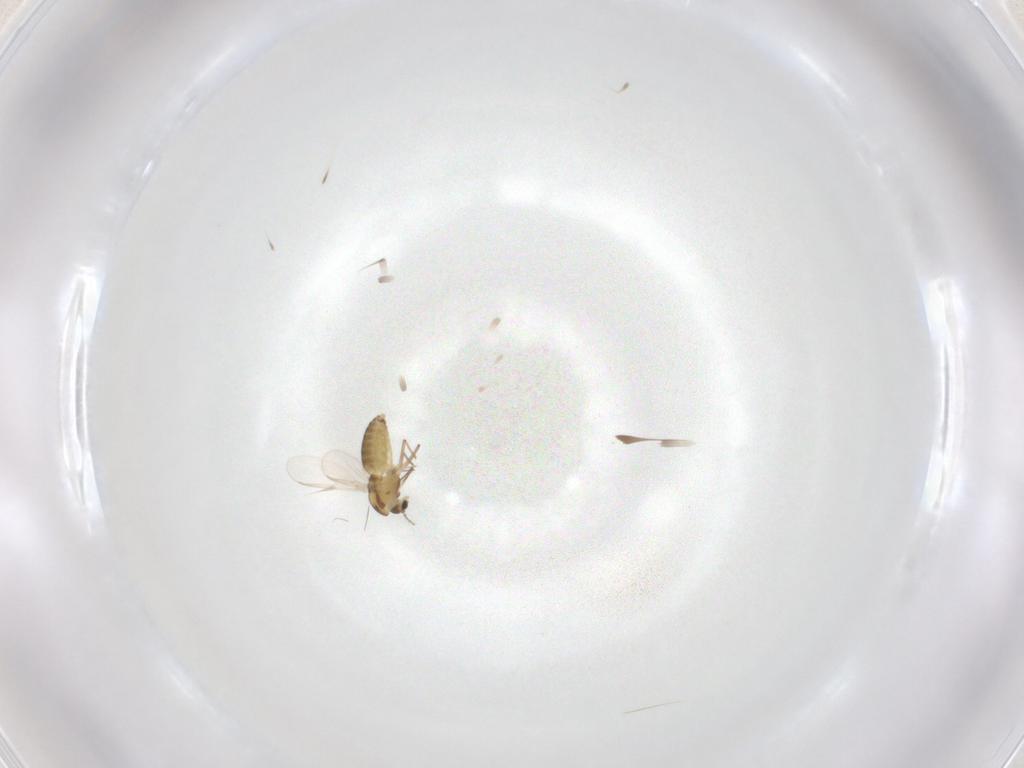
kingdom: Animalia
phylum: Arthropoda
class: Insecta
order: Diptera
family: Chironomidae
